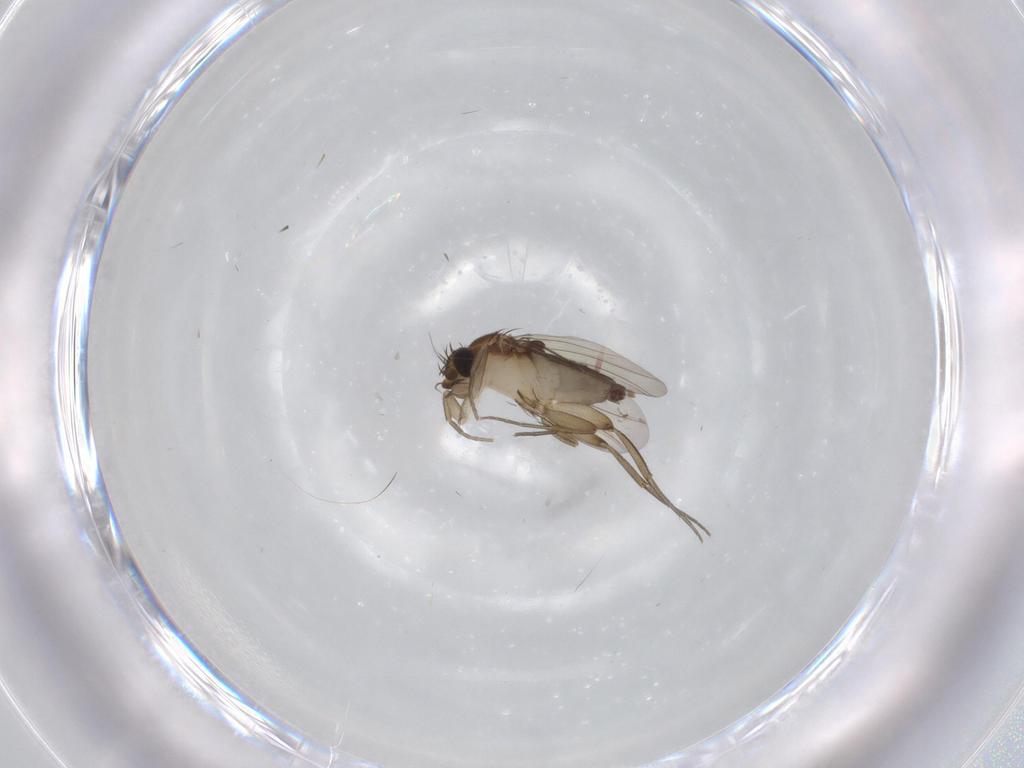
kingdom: Animalia
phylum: Arthropoda
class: Insecta
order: Diptera
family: Phoridae
